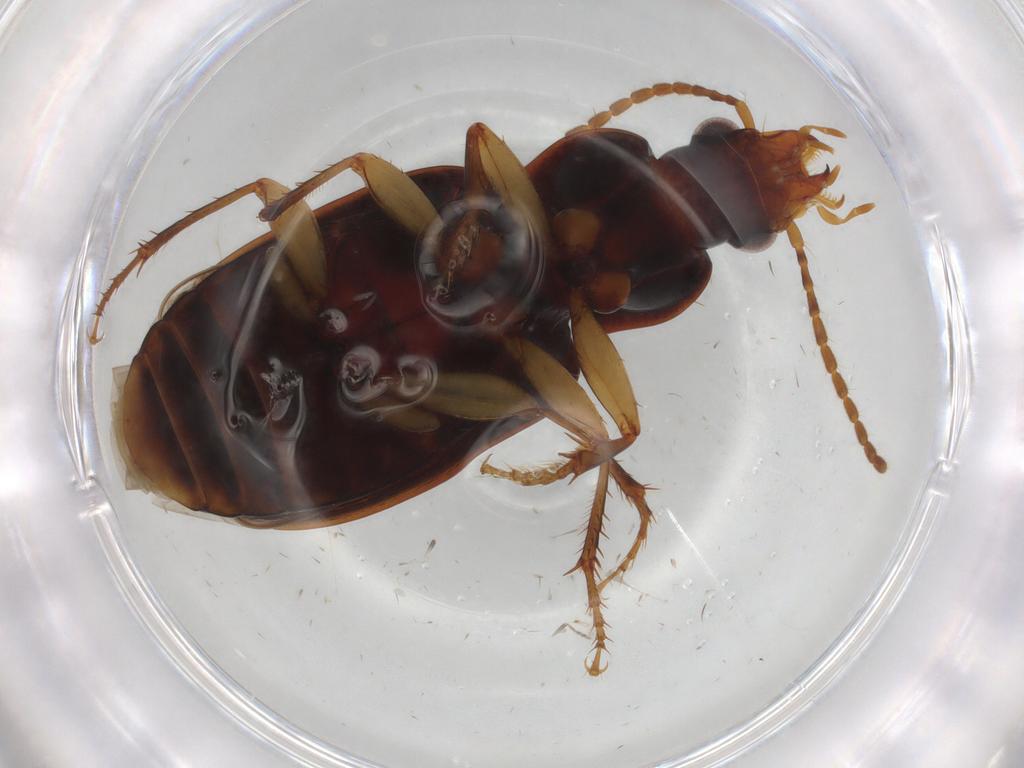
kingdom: Animalia
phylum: Arthropoda
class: Insecta
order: Coleoptera
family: Carabidae
